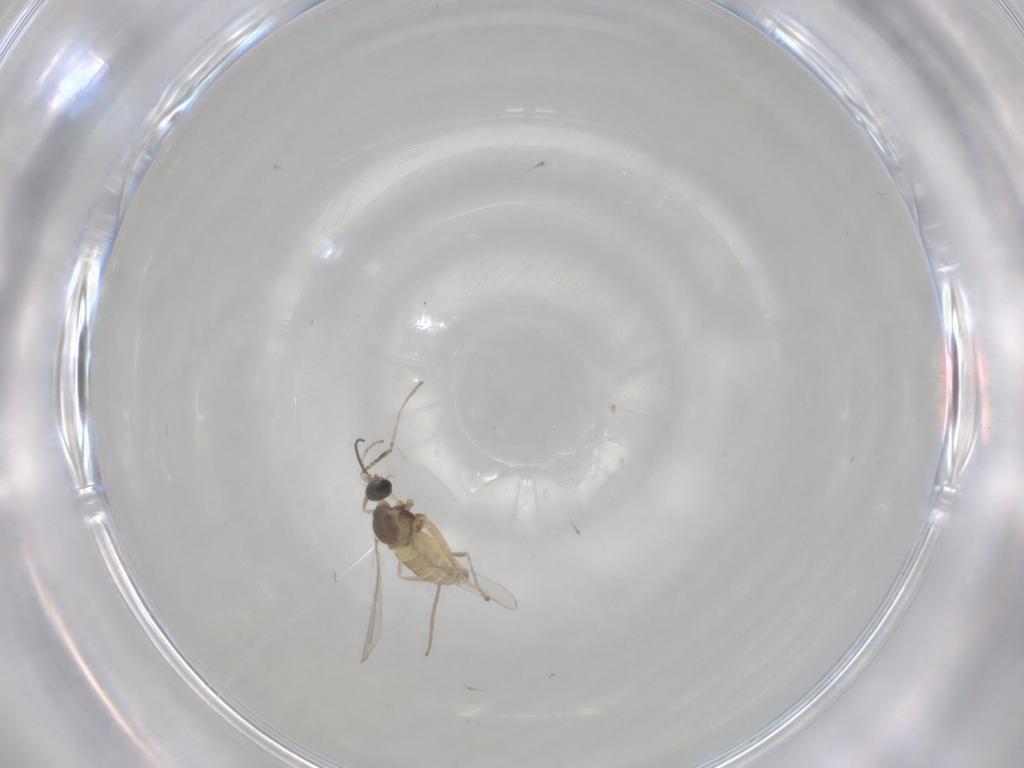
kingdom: Animalia
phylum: Arthropoda
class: Insecta
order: Diptera
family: Cecidomyiidae
